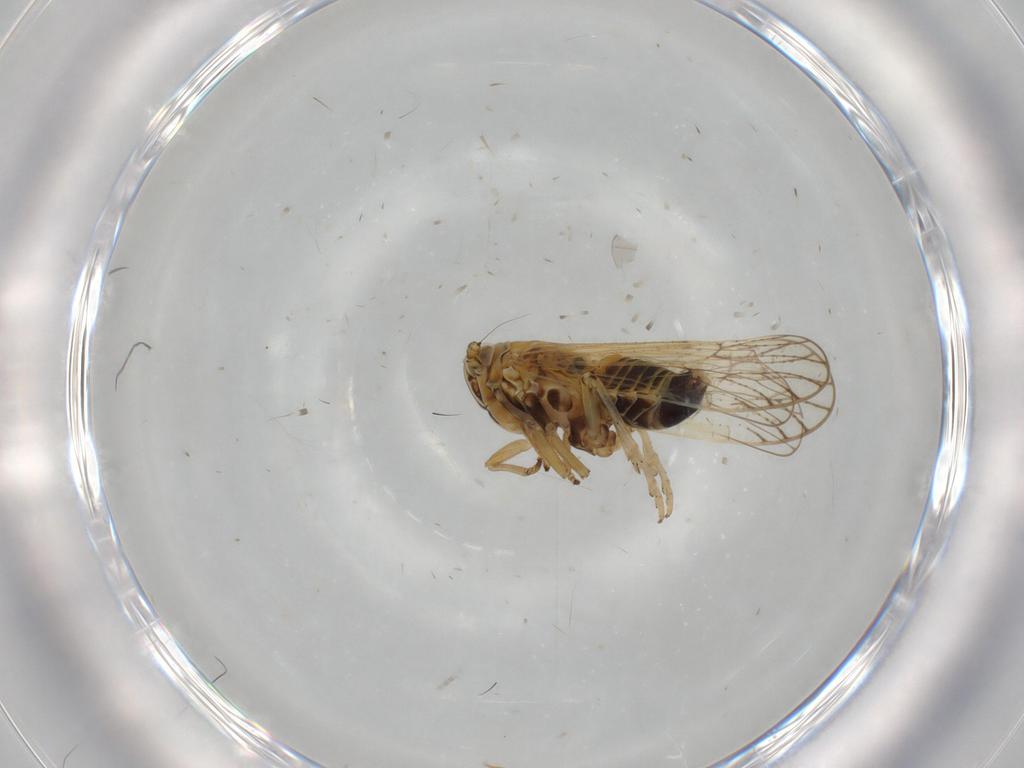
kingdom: Animalia
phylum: Arthropoda
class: Insecta
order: Hemiptera
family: Delphacidae
